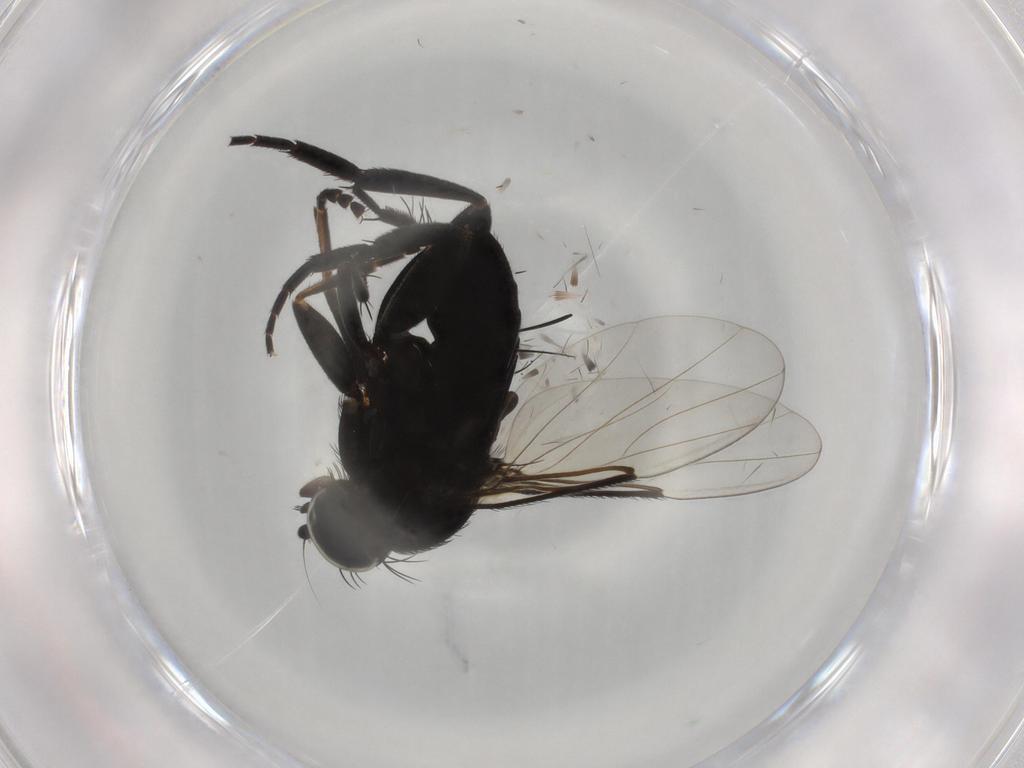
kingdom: Animalia
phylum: Arthropoda
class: Insecta
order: Diptera
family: Phoridae
